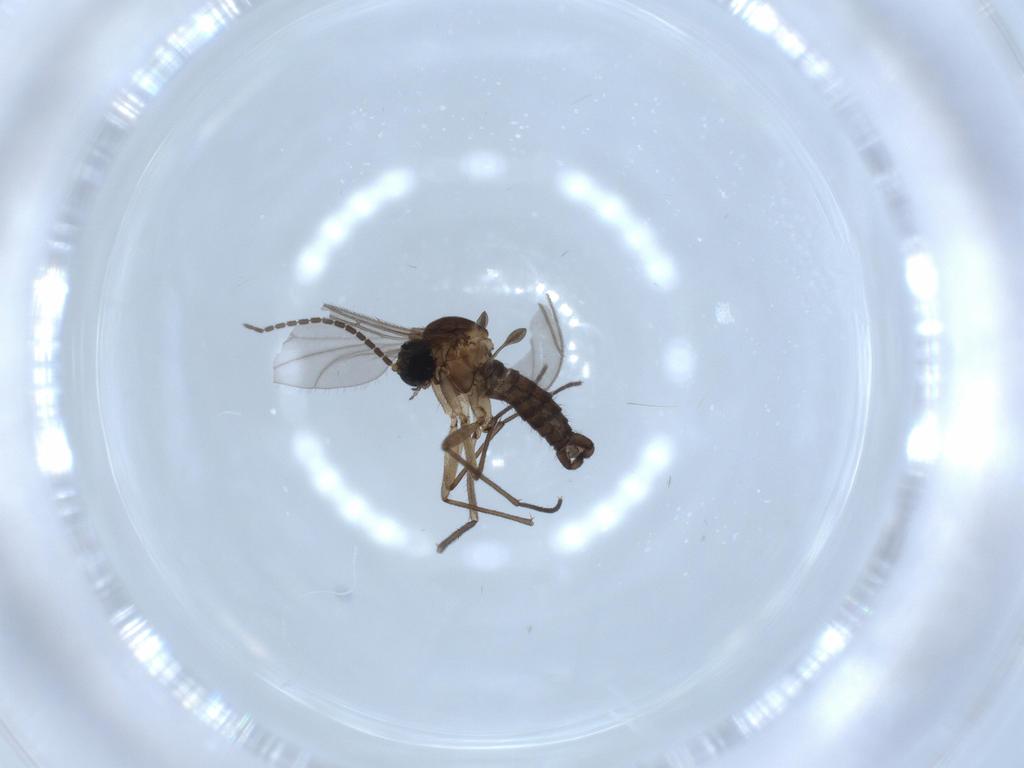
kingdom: Animalia
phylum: Arthropoda
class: Insecta
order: Diptera
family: Sciaridae
